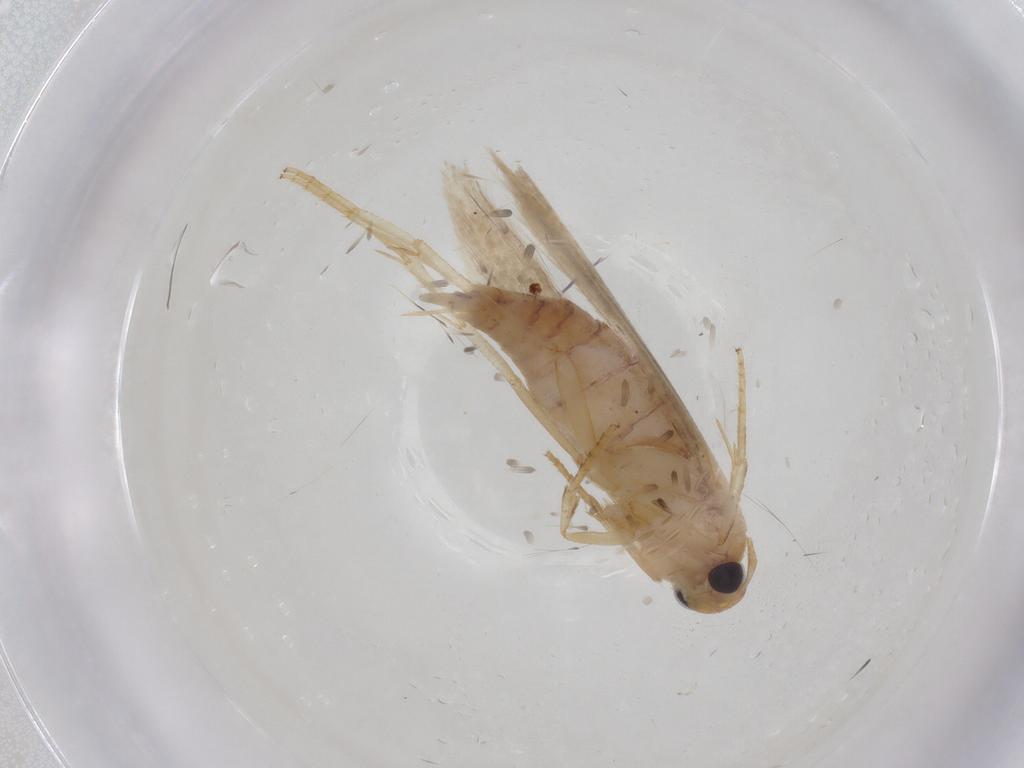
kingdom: Animalia
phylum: Arthropoda
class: Insecta
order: Lepidoptera
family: Stathmopodidae
